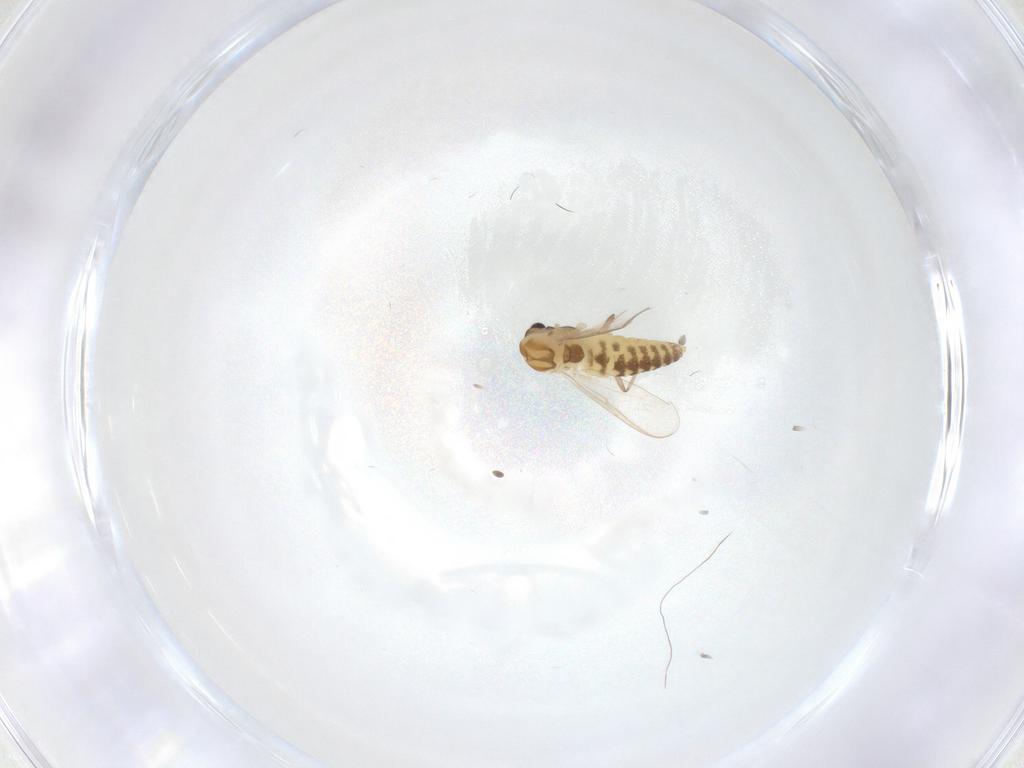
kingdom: Animalia
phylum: Arthropoda
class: Insecta
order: Diptera
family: Chironomidae
